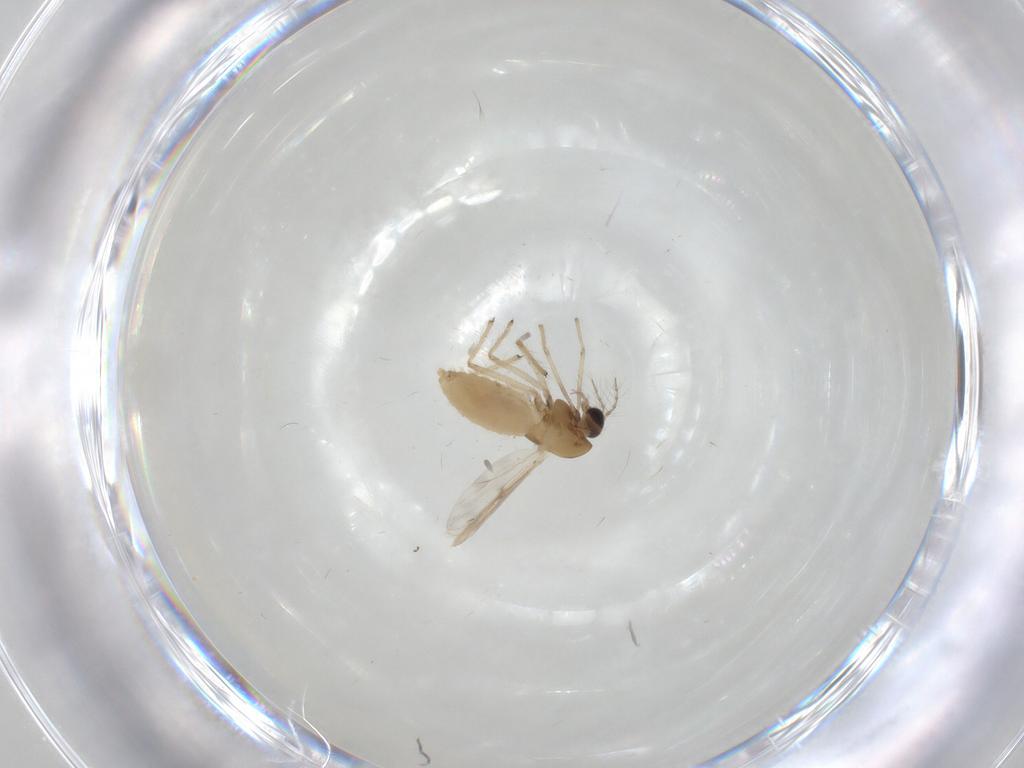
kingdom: Animalia
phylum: Arthropoda
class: Insecta
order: Diptera
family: Chironomidae
